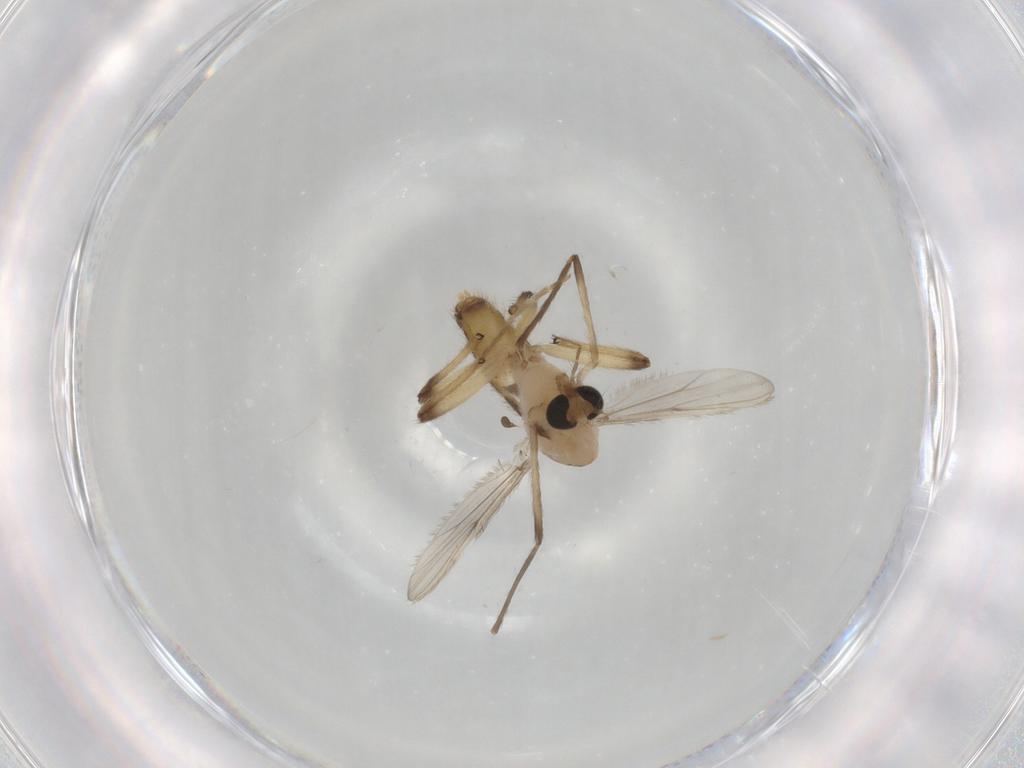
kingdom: Animalia
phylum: Arthropoda
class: Insecta
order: Diptera
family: Chironomidae
